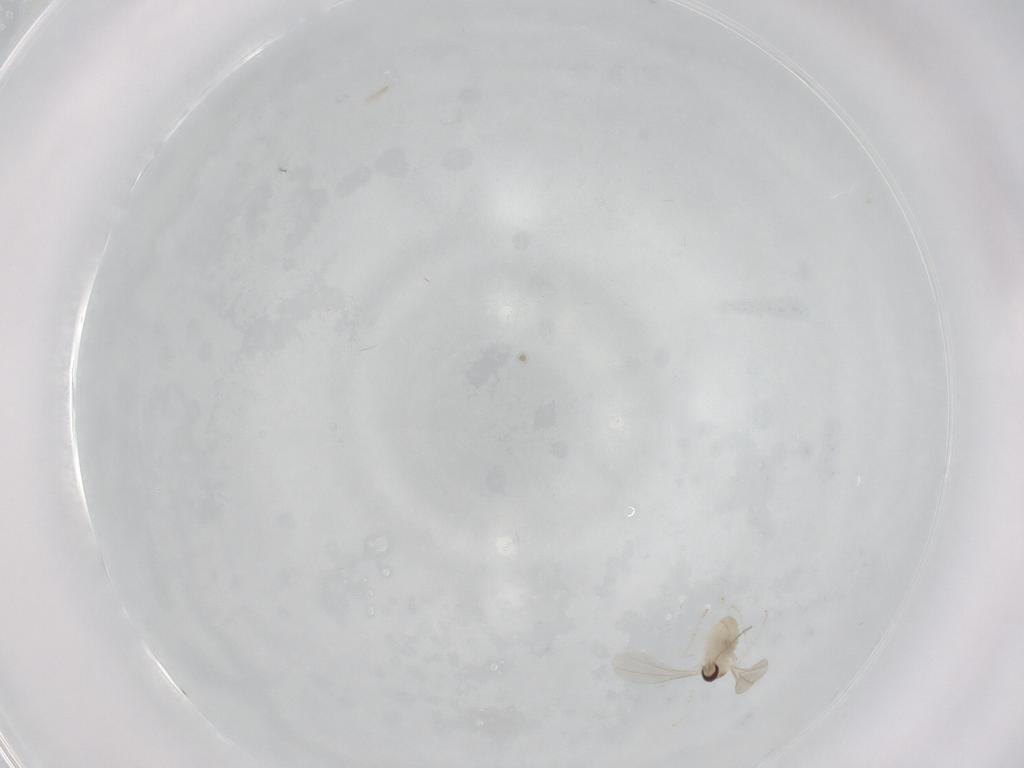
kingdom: Animalia
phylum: Arthropoda
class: Insecta
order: Diptera
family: Cecidomyiidae
